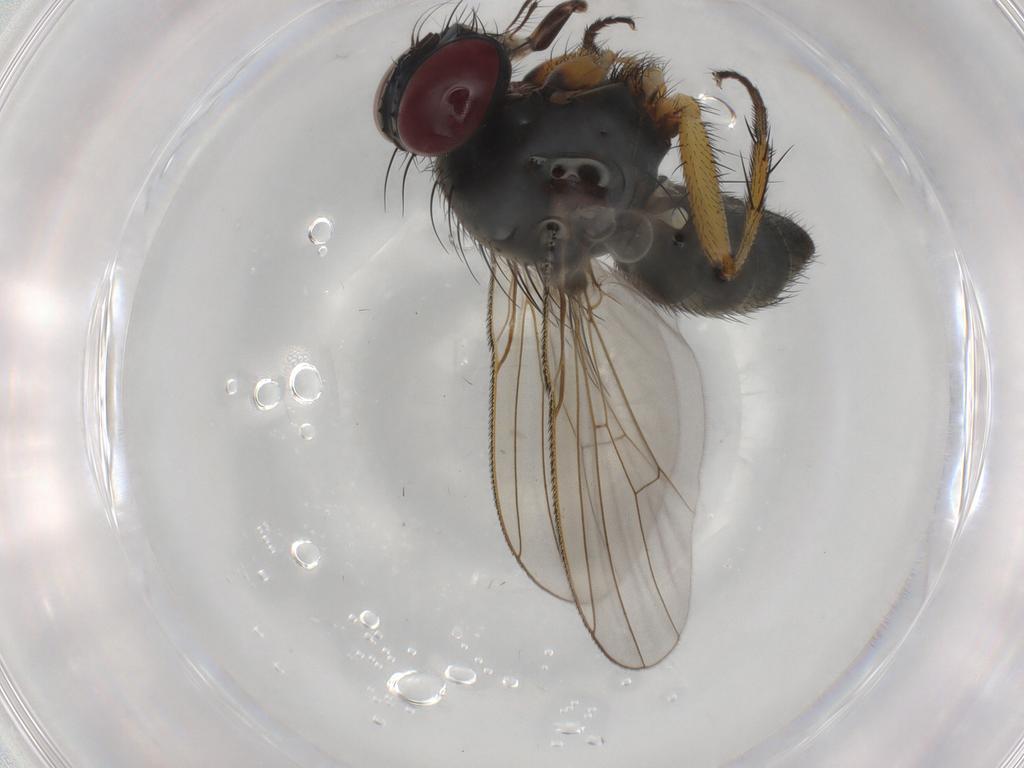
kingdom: Animalia
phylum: Arthropoda
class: Insecta
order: Diptera
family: Muscidae
